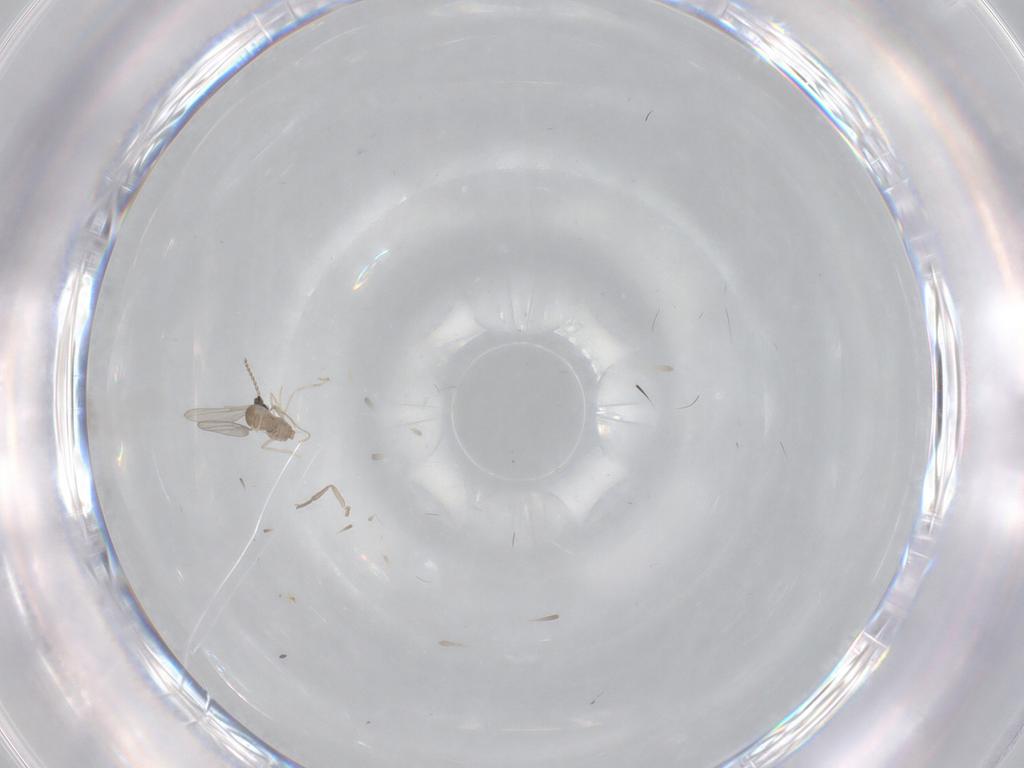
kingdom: Animalia
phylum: Arthropoda
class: Insecta
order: Diptera
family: Cecidomyiidae
